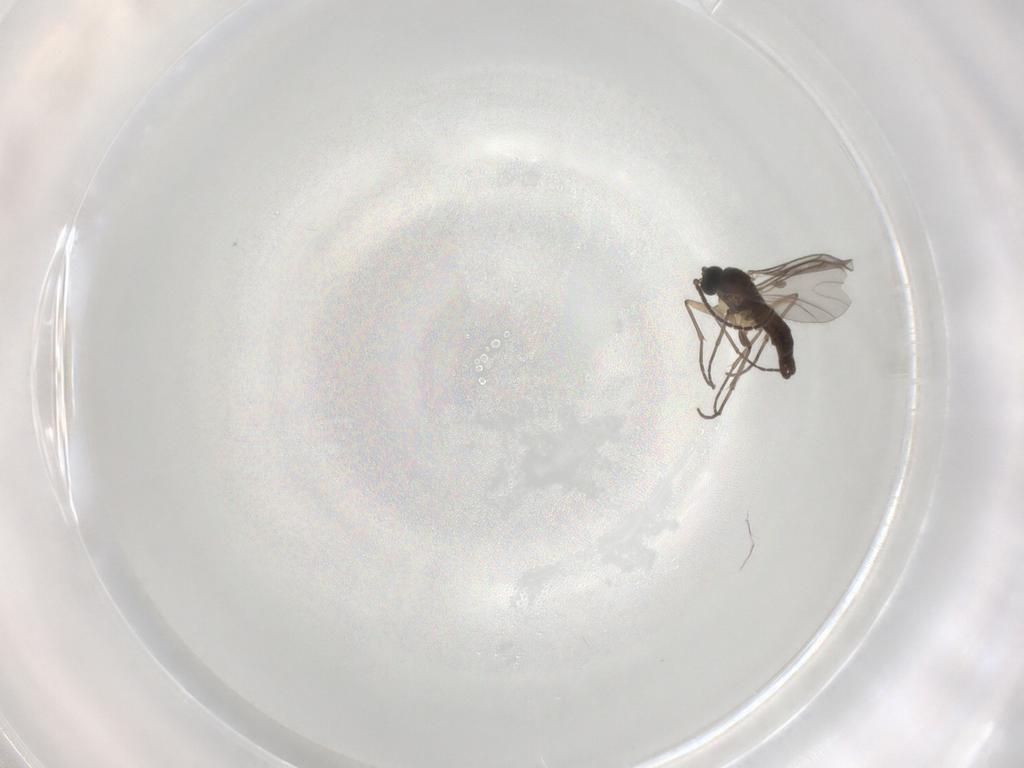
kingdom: Animalia
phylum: Arthropoda
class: Insecta
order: Diptera
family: Sciaridae
